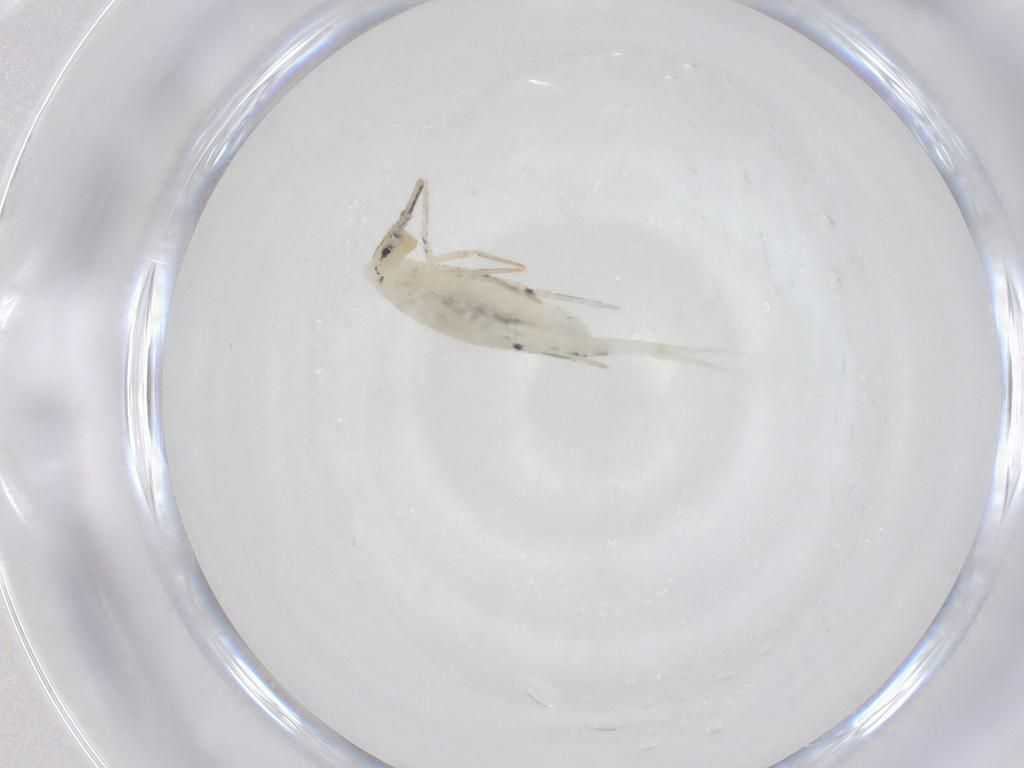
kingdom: Animalia
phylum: Arthropoda
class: Collembola
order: Entomobryomorpha
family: Entomobryidae
